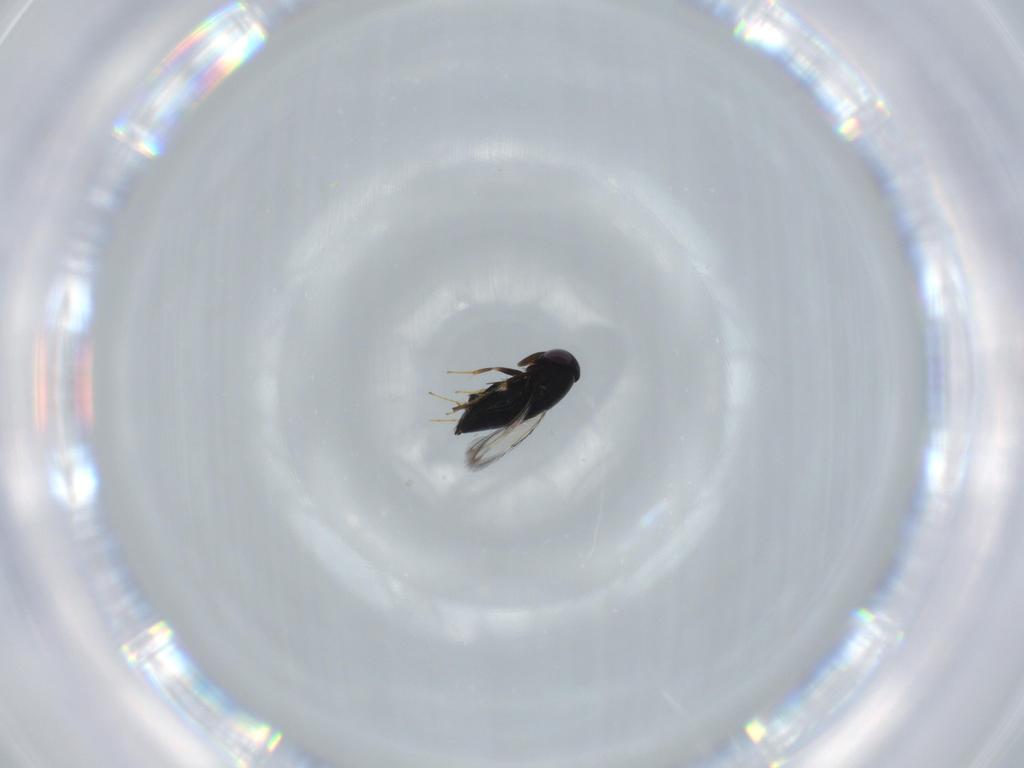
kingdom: Animalia
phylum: Arthropoda
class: Insecta
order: Hymenoptera
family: Signiphoridae
